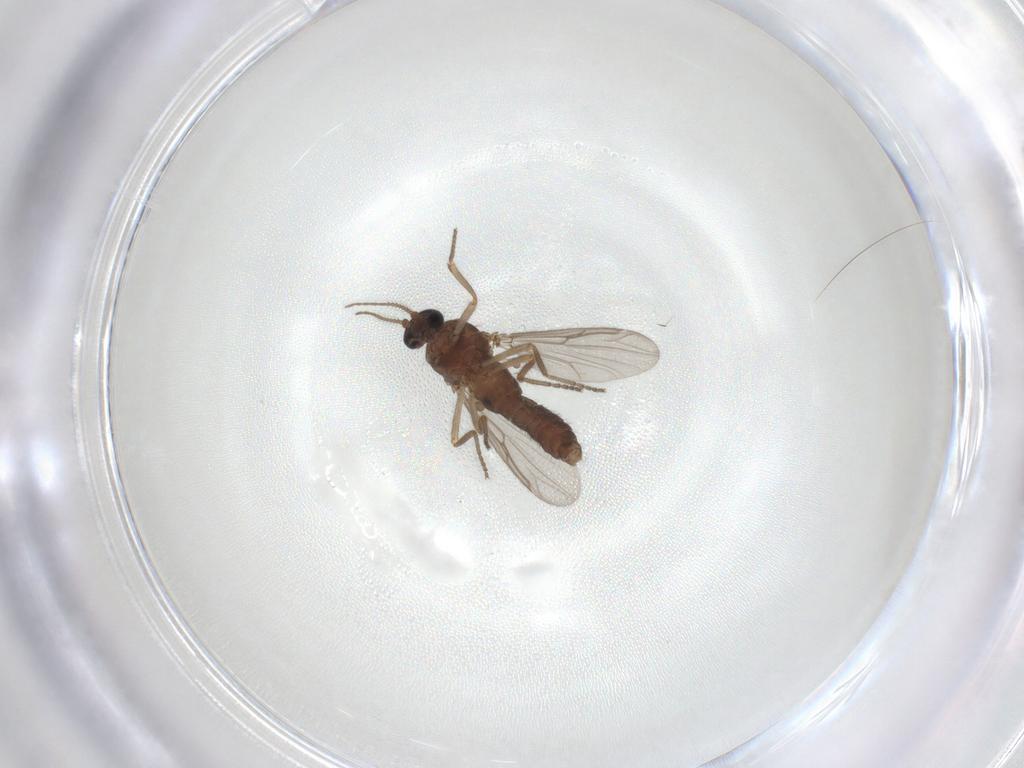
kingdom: Animalia
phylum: Arthropoda
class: Insecta
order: Diptera
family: Ceratopogonidae
